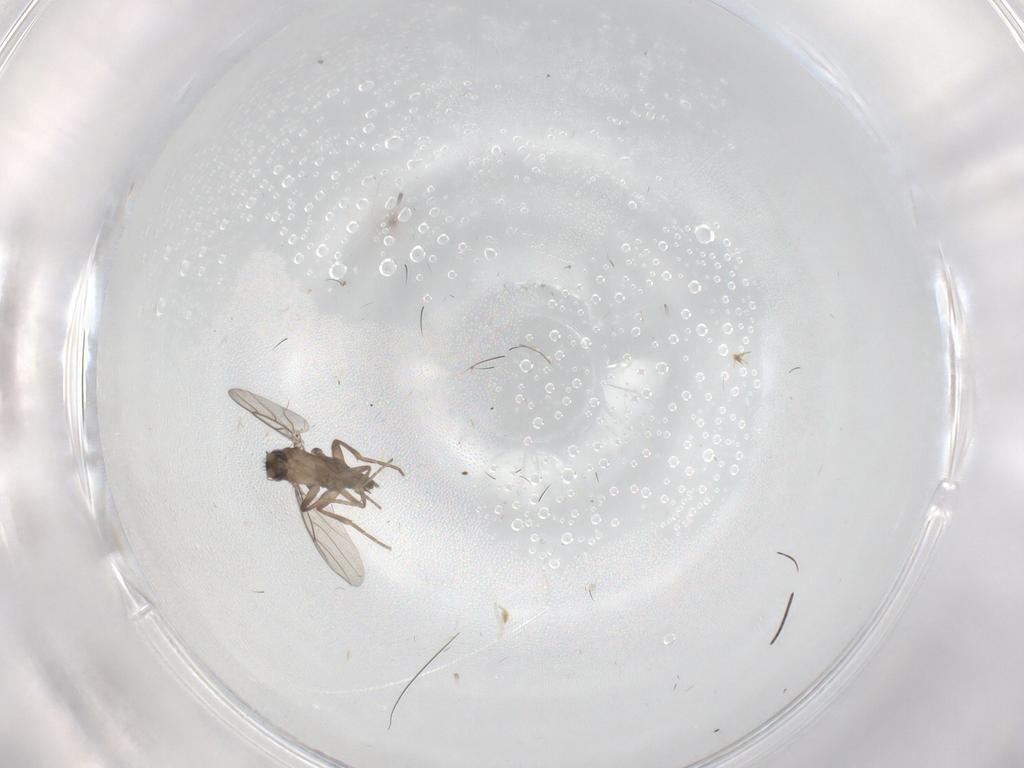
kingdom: Animalia
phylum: Arthropoda
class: Insecta
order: Diptera
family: Phoridae
